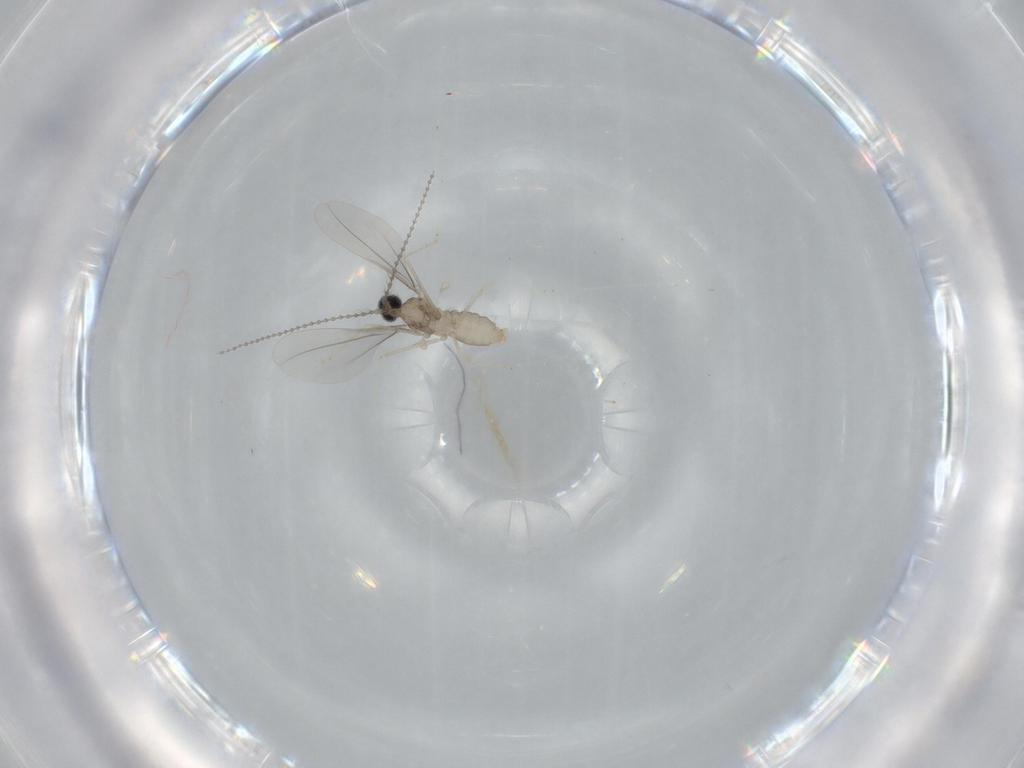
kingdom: Animalia
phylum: Arthropoda
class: Insecta
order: Diptera
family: Cecidomyiidae
